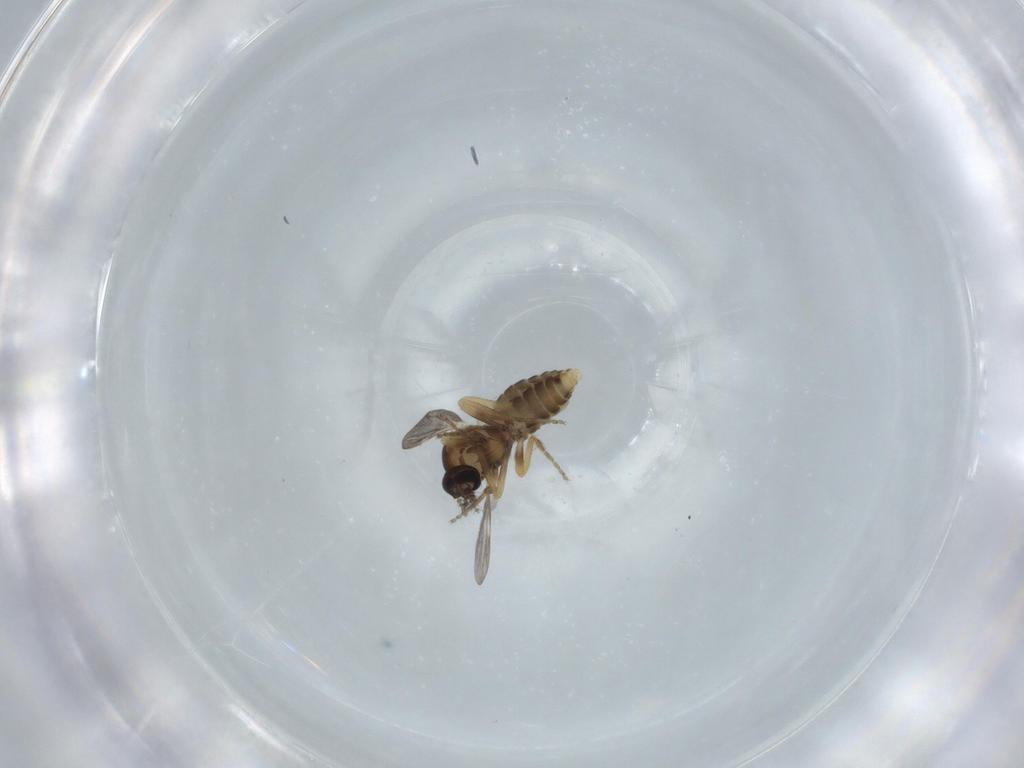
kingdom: Animalia
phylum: Arthropoda
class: Insecta
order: Diptera
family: Ceratopogonidae
